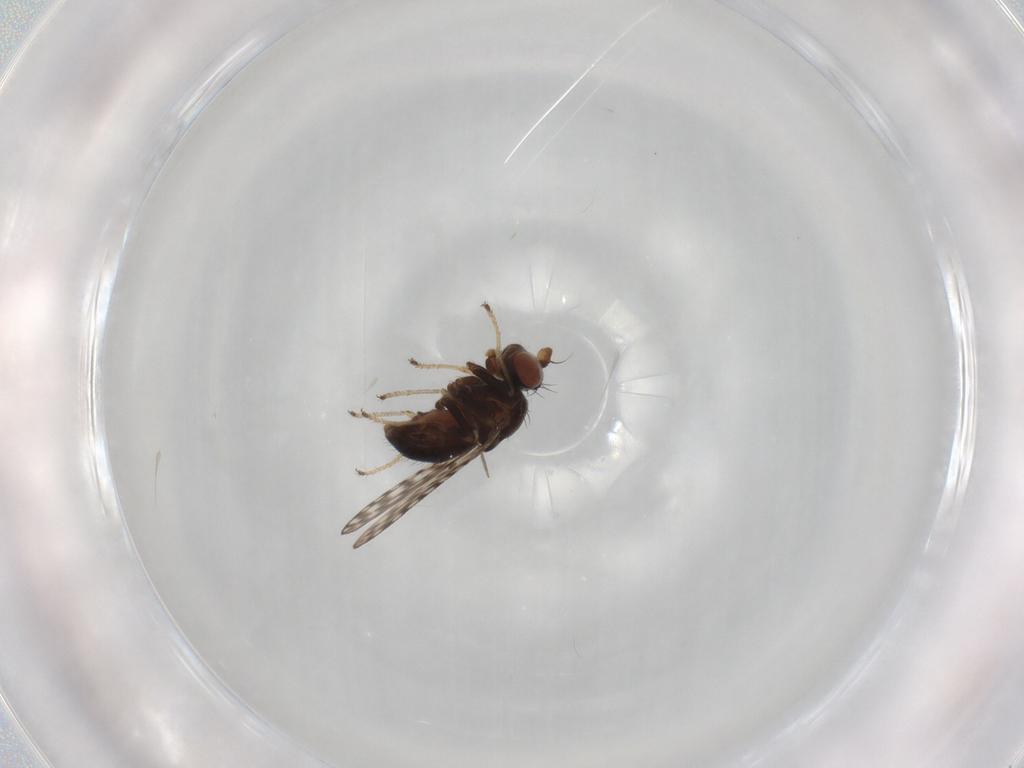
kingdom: Animalia
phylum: Arthropoda
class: Insecta
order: Diptera
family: Ephydridae
